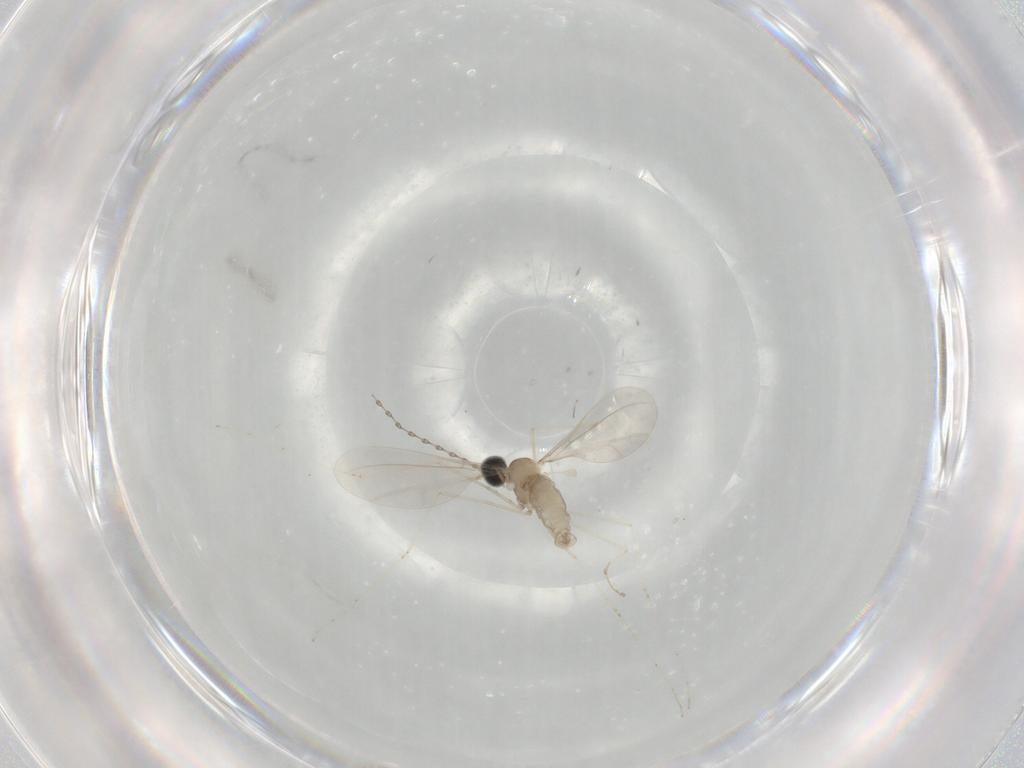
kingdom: Animalia
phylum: Arthropoda
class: Insecta
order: Diptera
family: Cecidomyiidae
